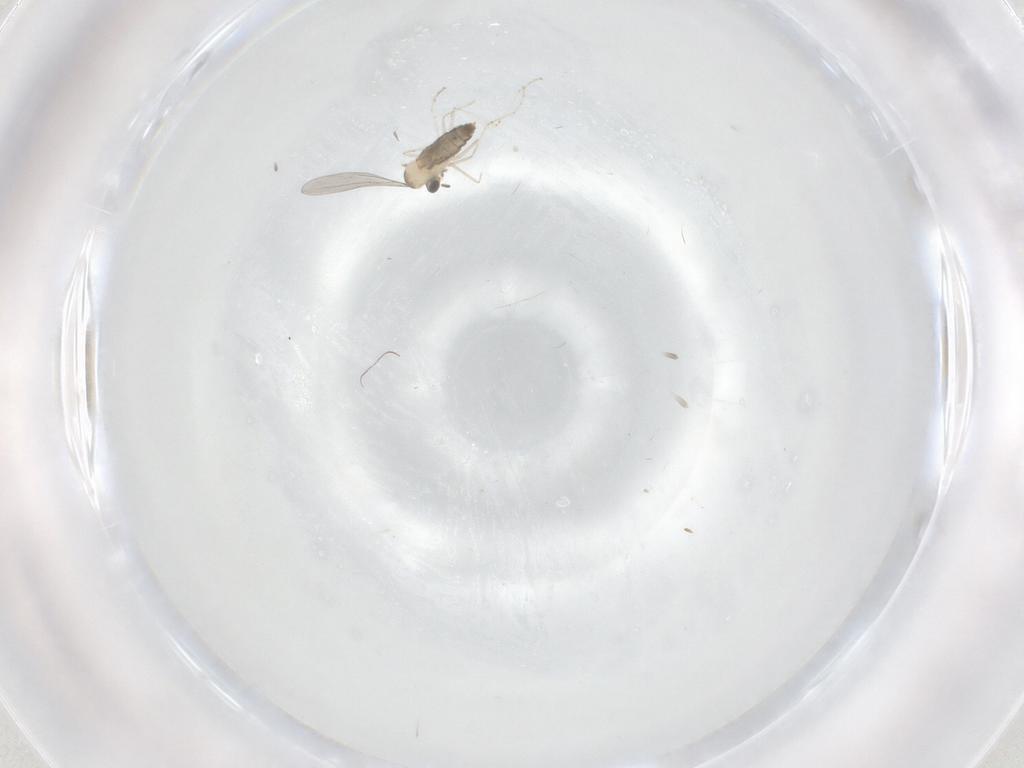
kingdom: Animalia
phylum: Arthropoda
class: Insecta
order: Diptera
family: Cecidomyiidae
